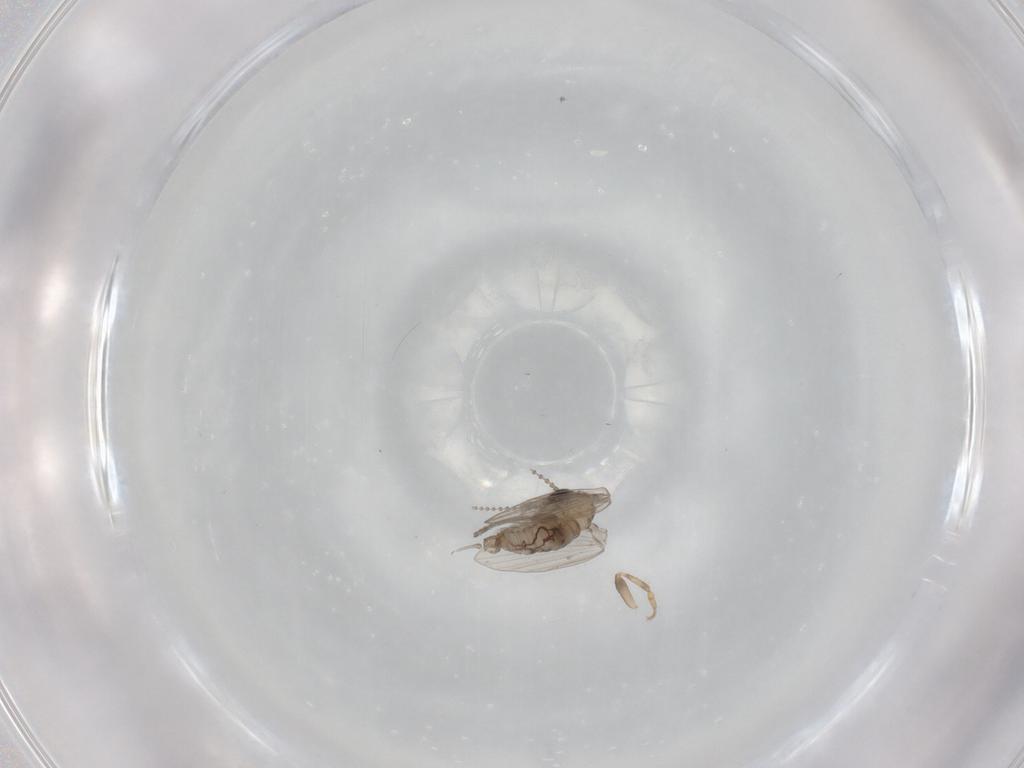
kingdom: Animalia
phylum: Arthropoda
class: Insecta
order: Diptera
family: Psychodidae
